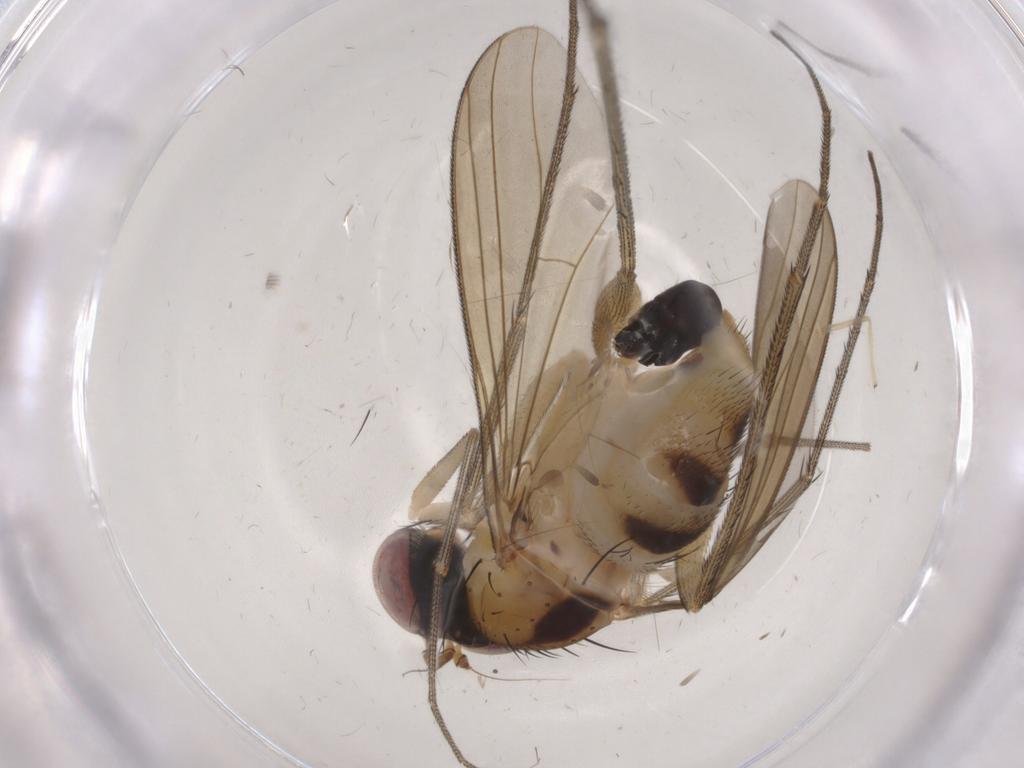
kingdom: Animalia
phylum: Arthropoda
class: Insecta
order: Diptera
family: Dolichopodidae
